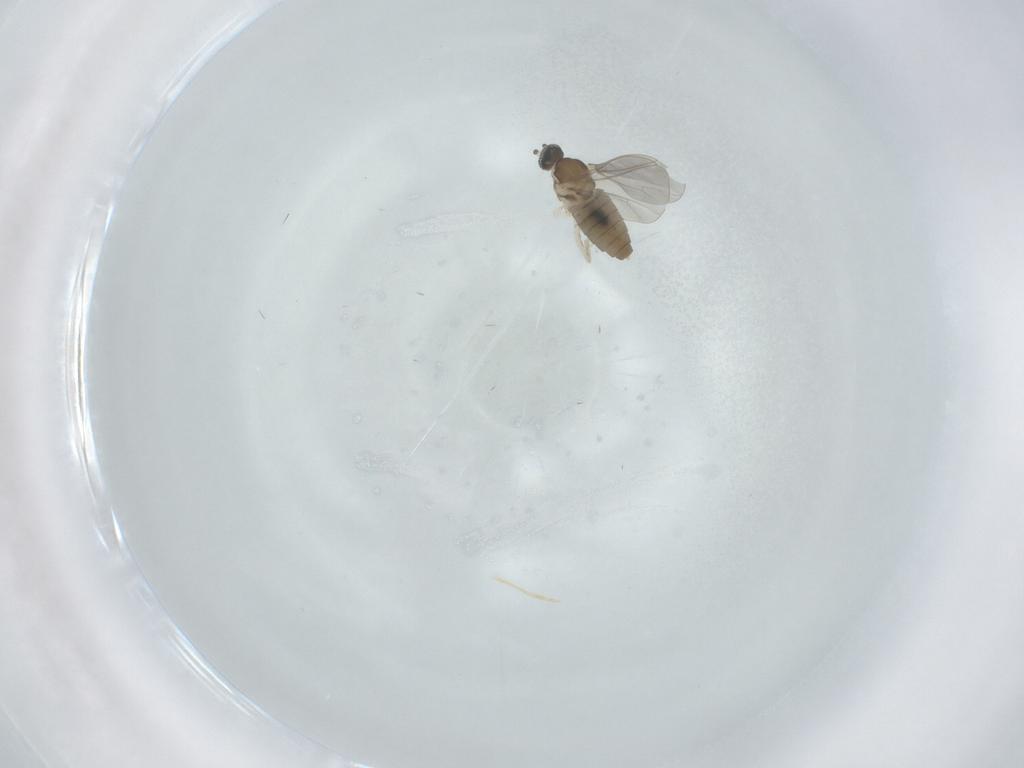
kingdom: Animalia
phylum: Arthropoda
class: Insecta
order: Diptera
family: Cecidomyiidae
